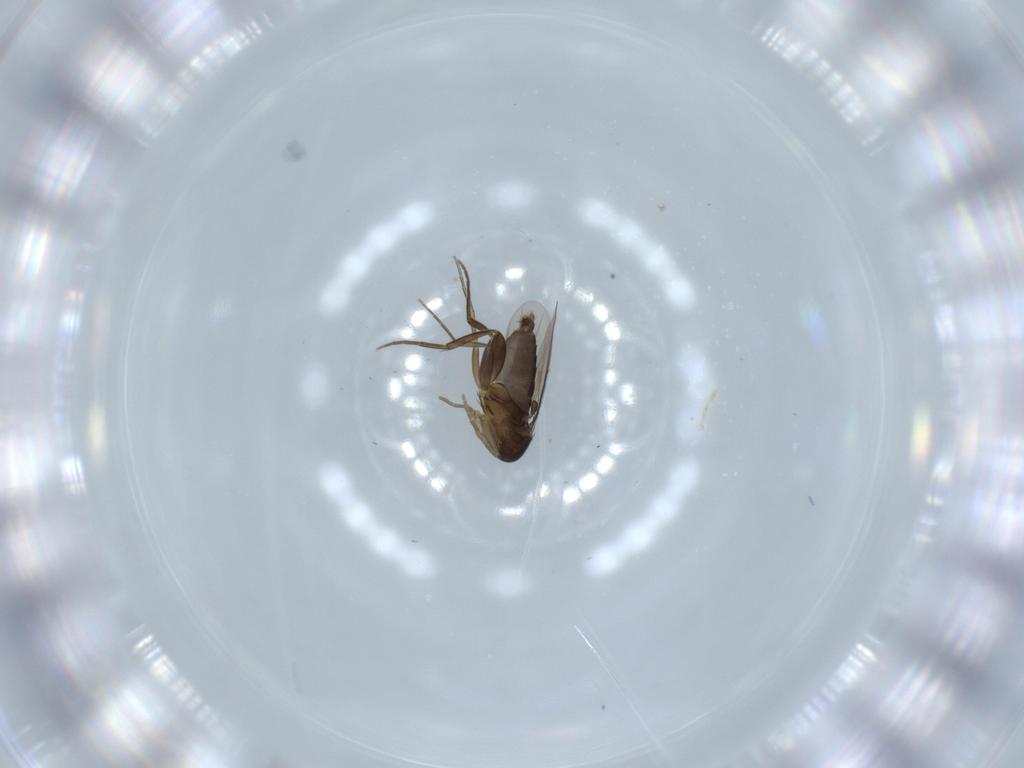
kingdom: Animalia
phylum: Arthropoda
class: Insecta
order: Diptera
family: Phoridae
